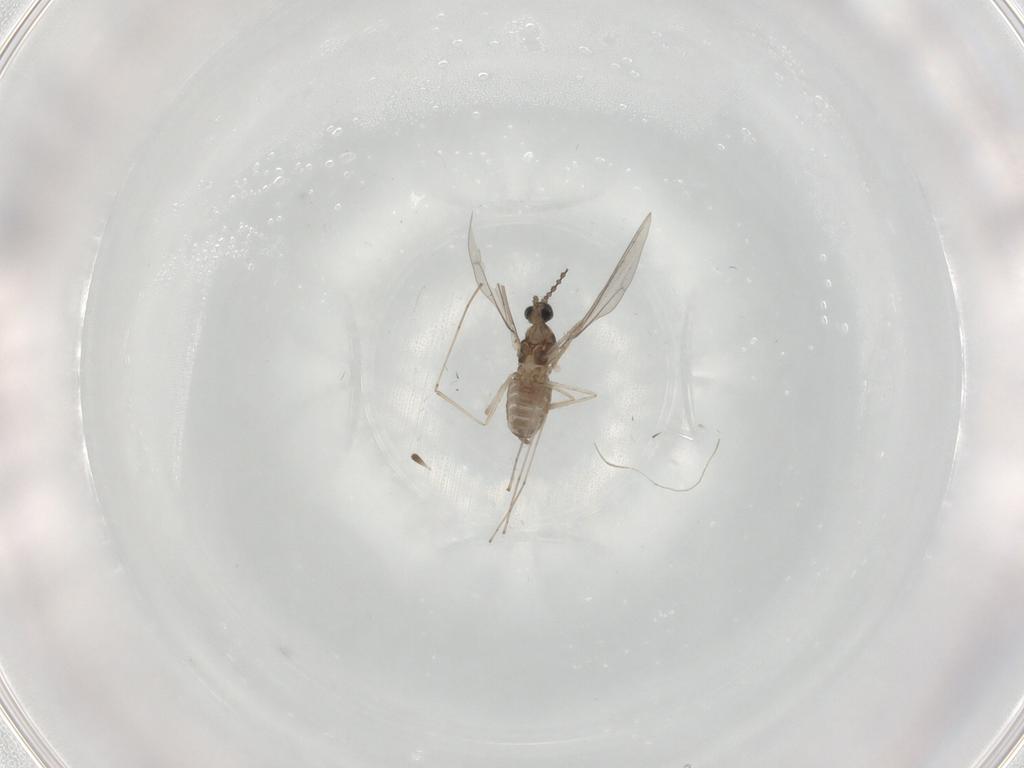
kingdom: Animalia
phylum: Arthropoda
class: Insecta
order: Diptera
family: Cecidomyiidae
